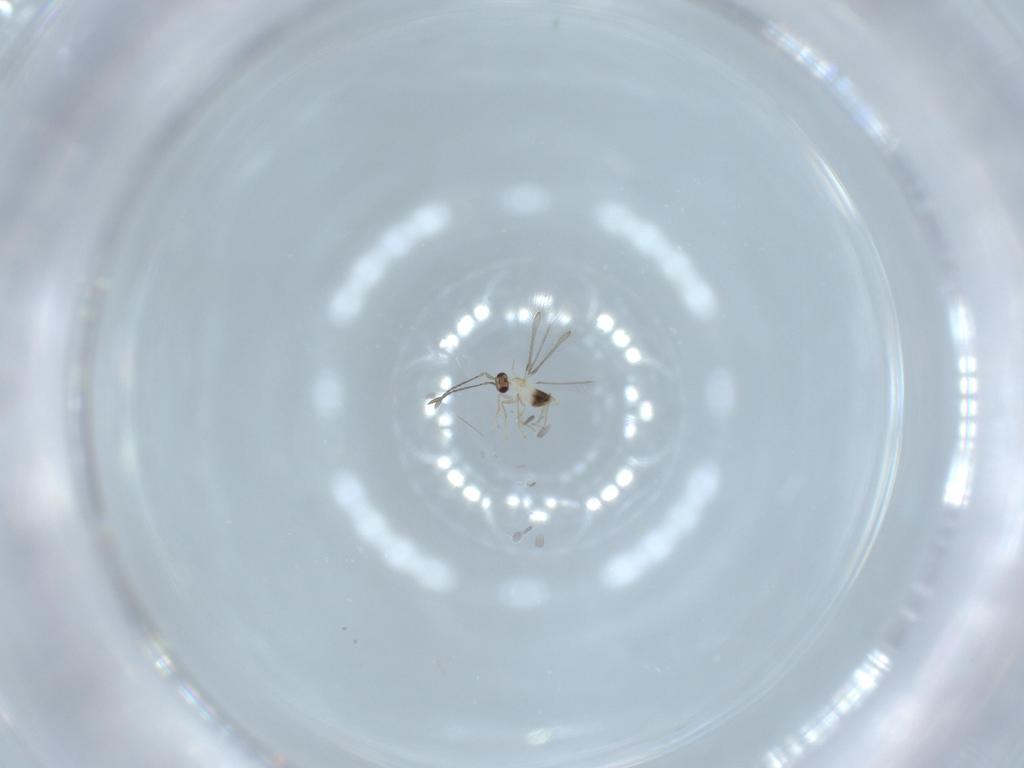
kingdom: Animalia
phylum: Arthropoda
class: Insecta
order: Hymenoptera
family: Mymaridae
